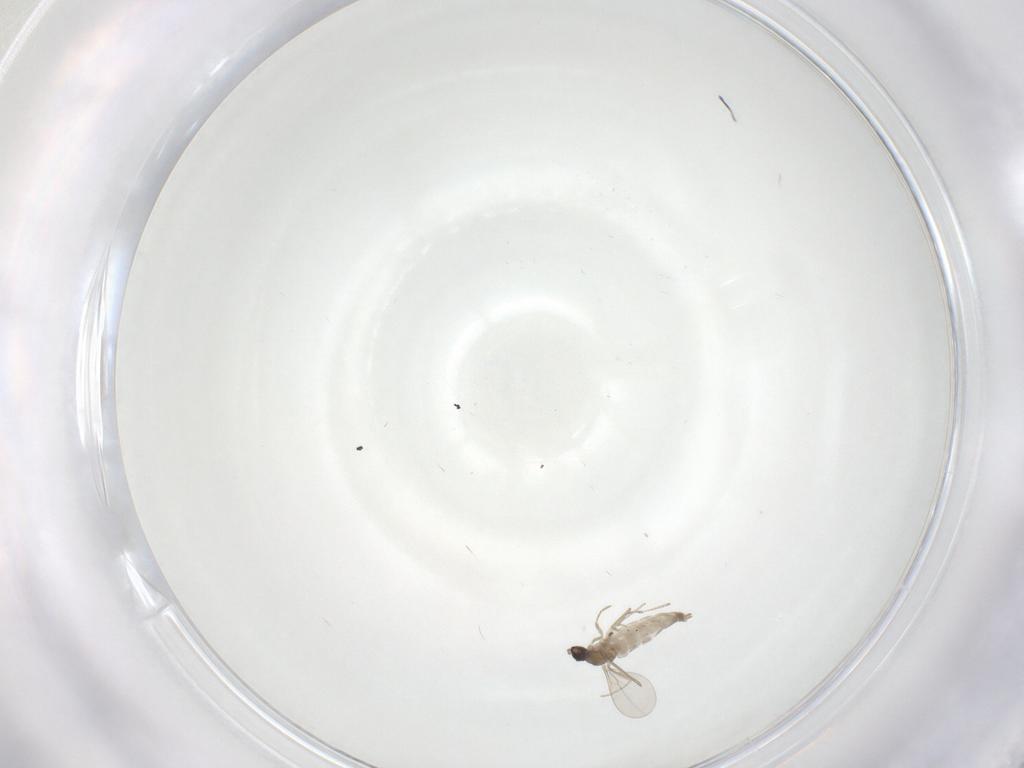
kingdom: Animalia
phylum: Arthropoda
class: Insecta
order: Diptera
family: Cecidomyiidae
